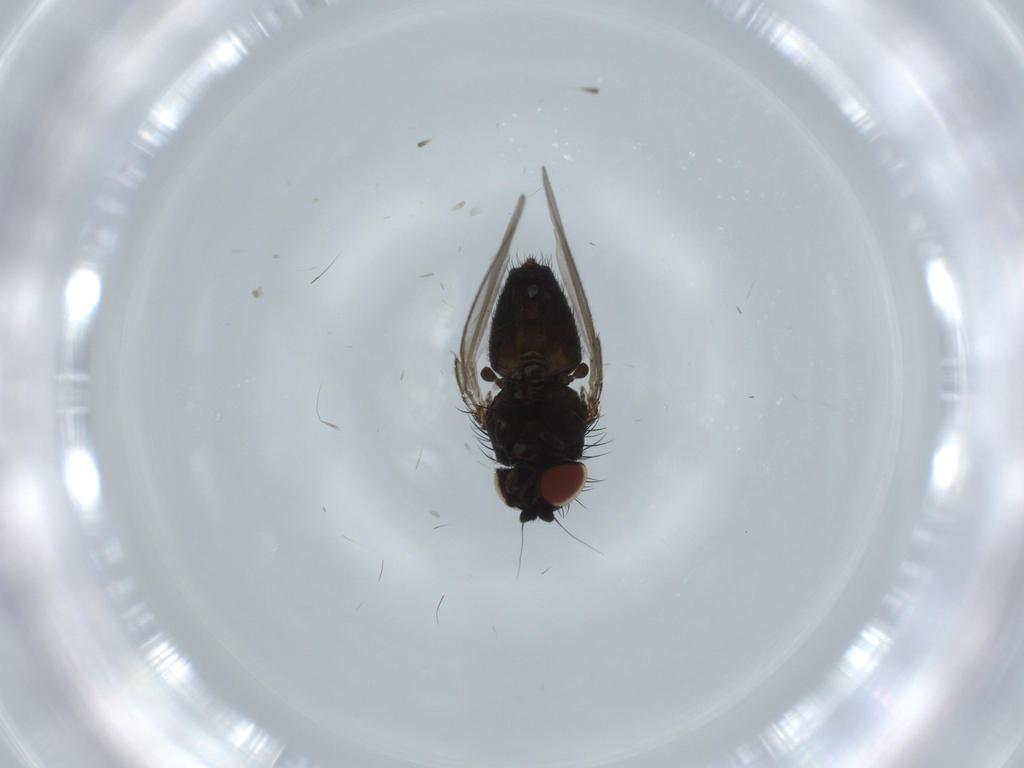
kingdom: Animalia
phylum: Arthropoda
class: Insecta
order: Diptera
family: Milichiidae
